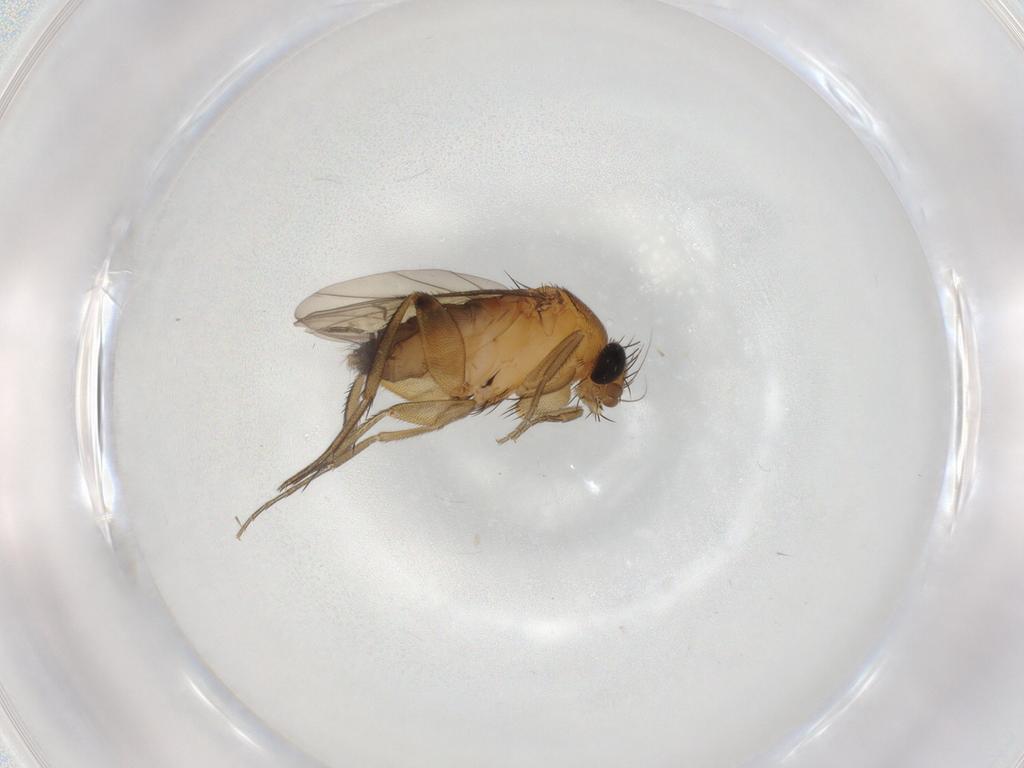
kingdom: Animalia
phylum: Arthropoda
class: Insecta
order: Diptera
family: Phoridae
